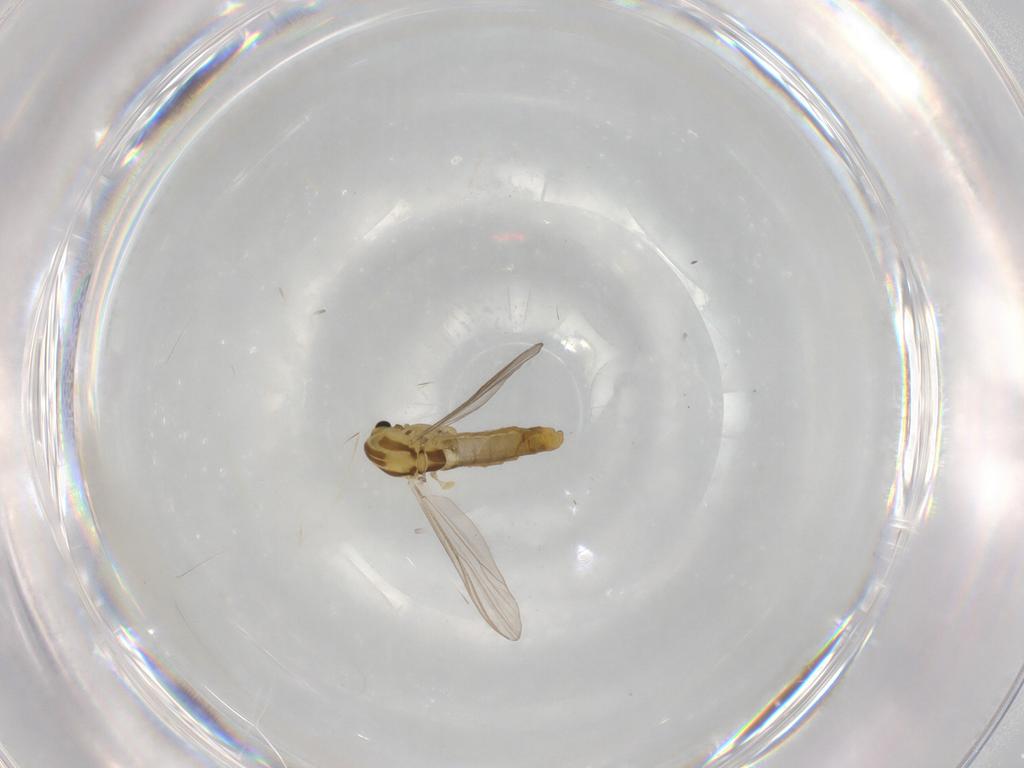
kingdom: Animalia
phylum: Arthropoda
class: Insecta
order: Diptera
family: Chironomidae
